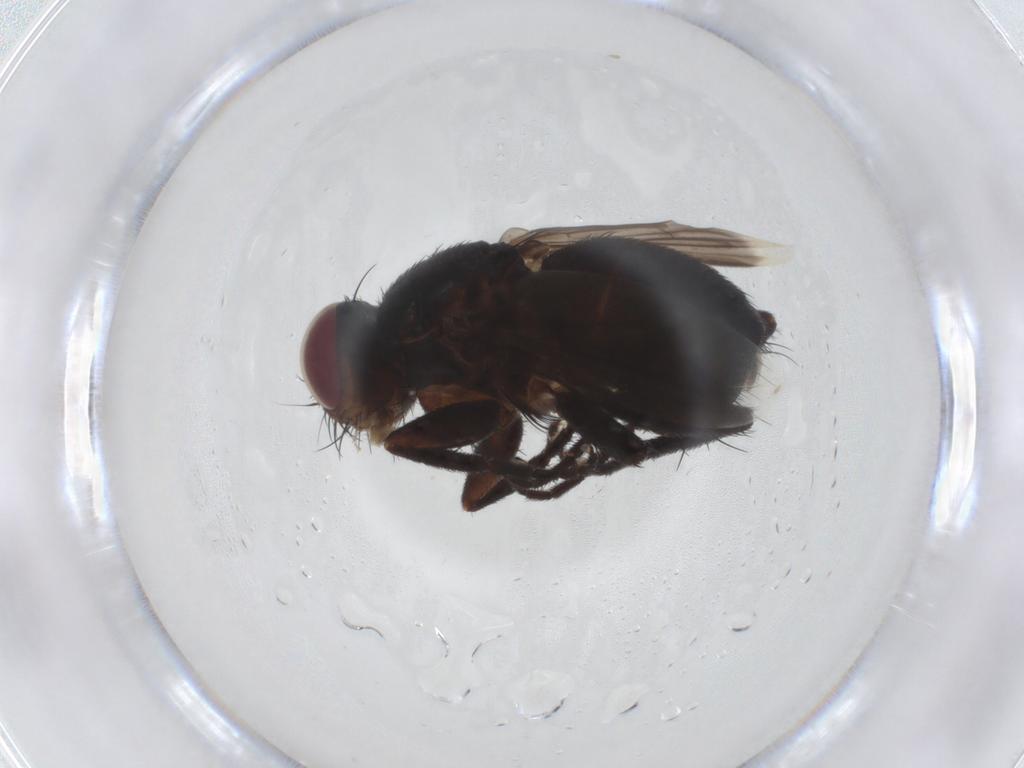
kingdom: Animalia
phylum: Arthropoda
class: Insecta
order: Diptera
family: Tachinidae
